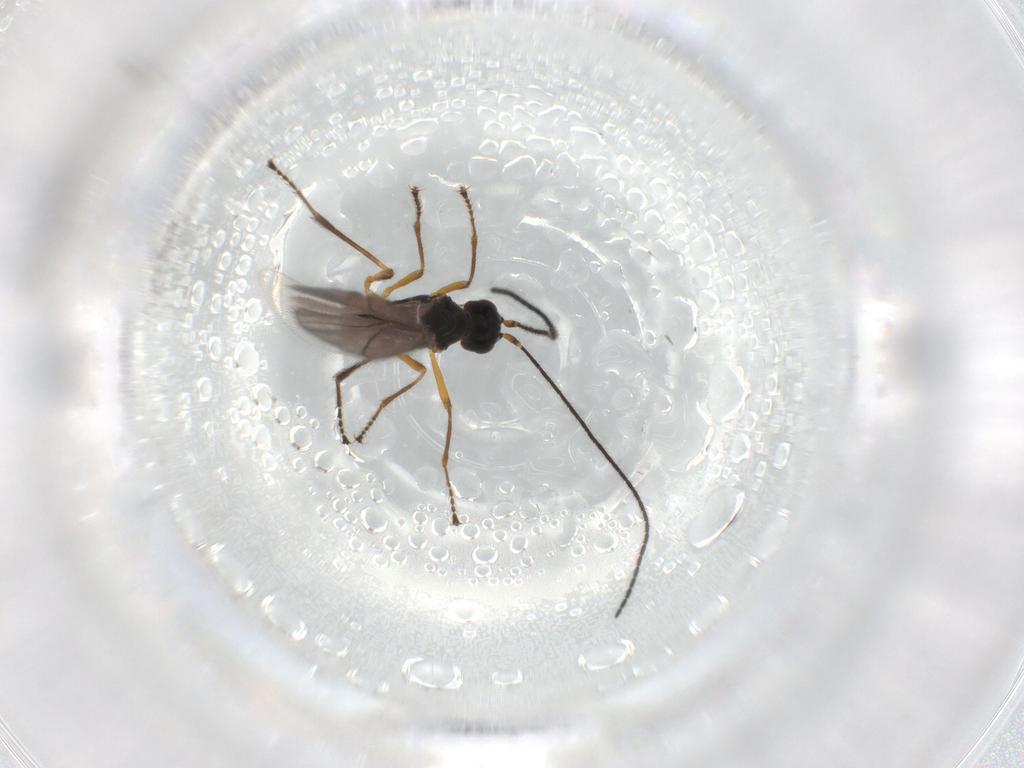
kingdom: Animalia
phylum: Arthropoda
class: Insecta
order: Hymenoptera
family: Braconidae
